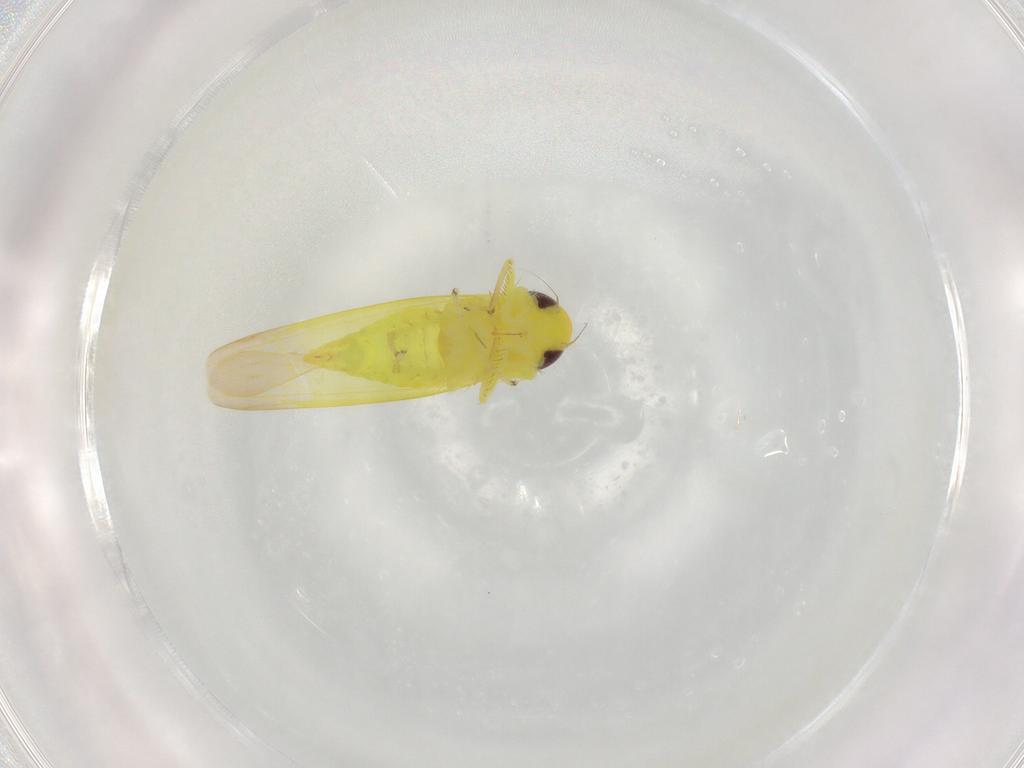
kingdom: Animalia
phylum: Arthropoda
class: Insecta
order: Hemiptera
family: Cicadellidae
